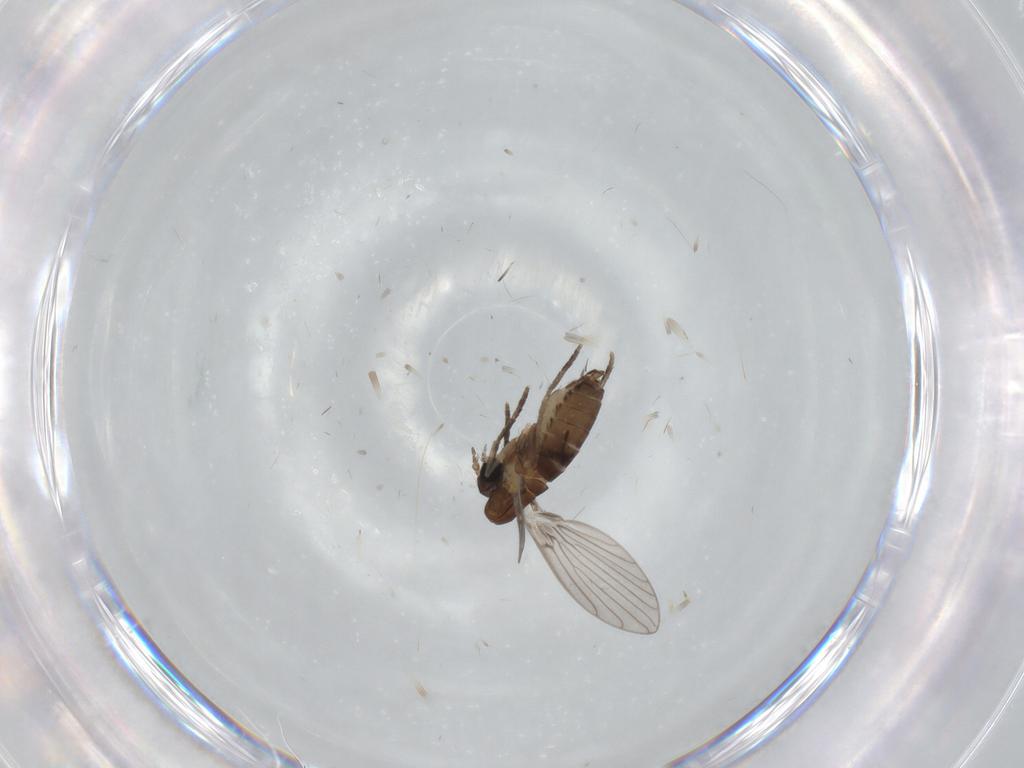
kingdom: Animalia
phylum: Arthropoda
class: Insecta
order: Diptera
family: Psychodidae
